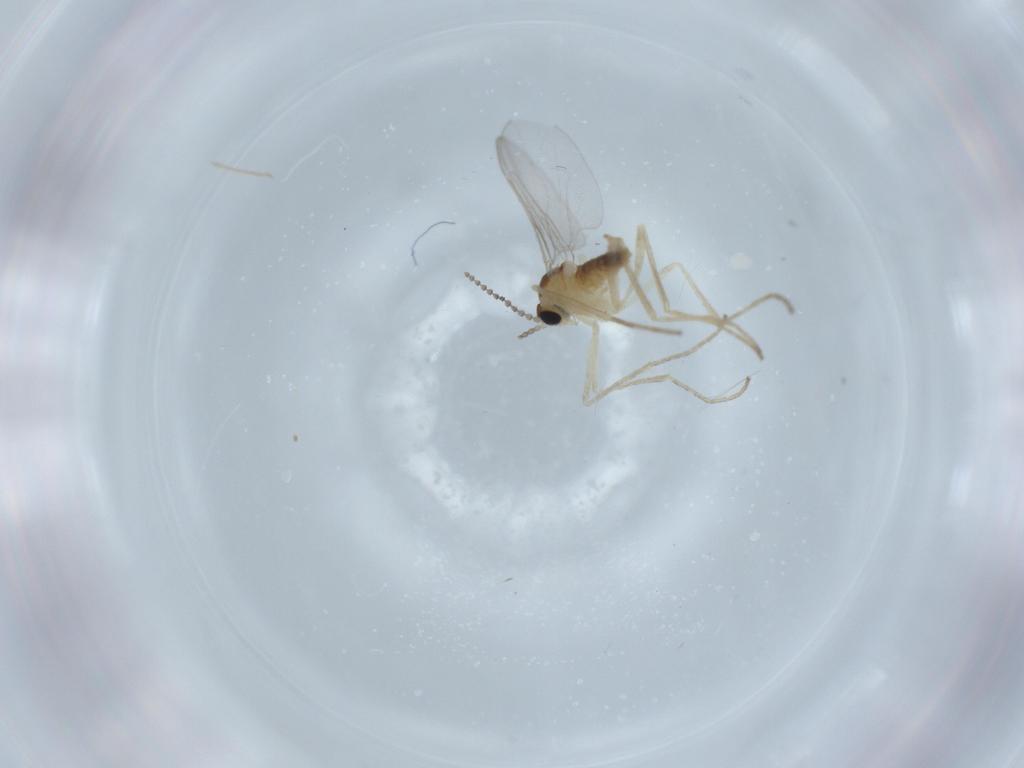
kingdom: Animalia
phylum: Arthropoda
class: Insecta
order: Diptera
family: Cecidomyiidae
